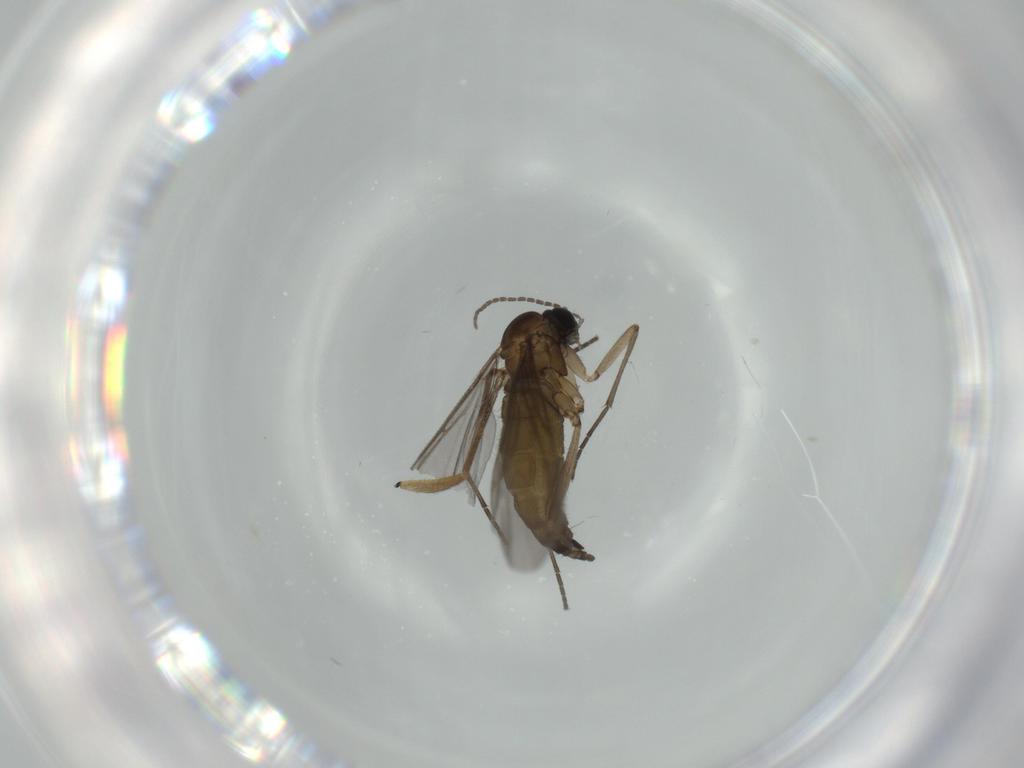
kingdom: Animalia
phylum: Arthropoda
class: Insecta
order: Diptera
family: Sciaridae
